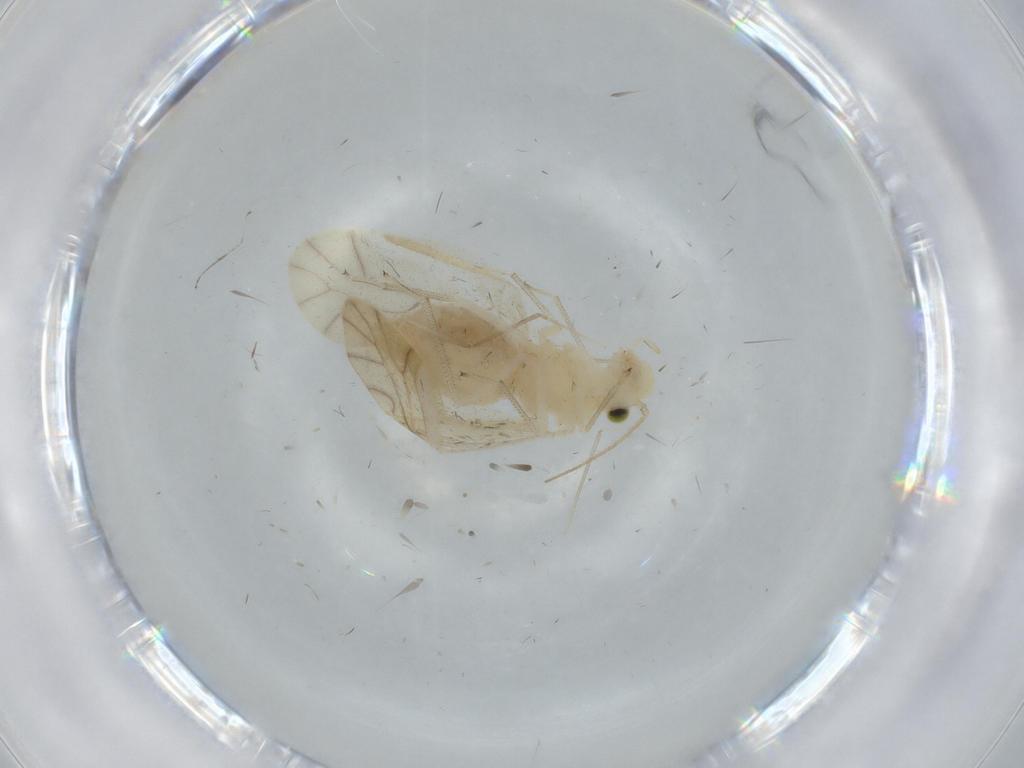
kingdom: Animalia
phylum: Arthropoda
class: Insecta
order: Psocodea
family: Caeciliusidae
